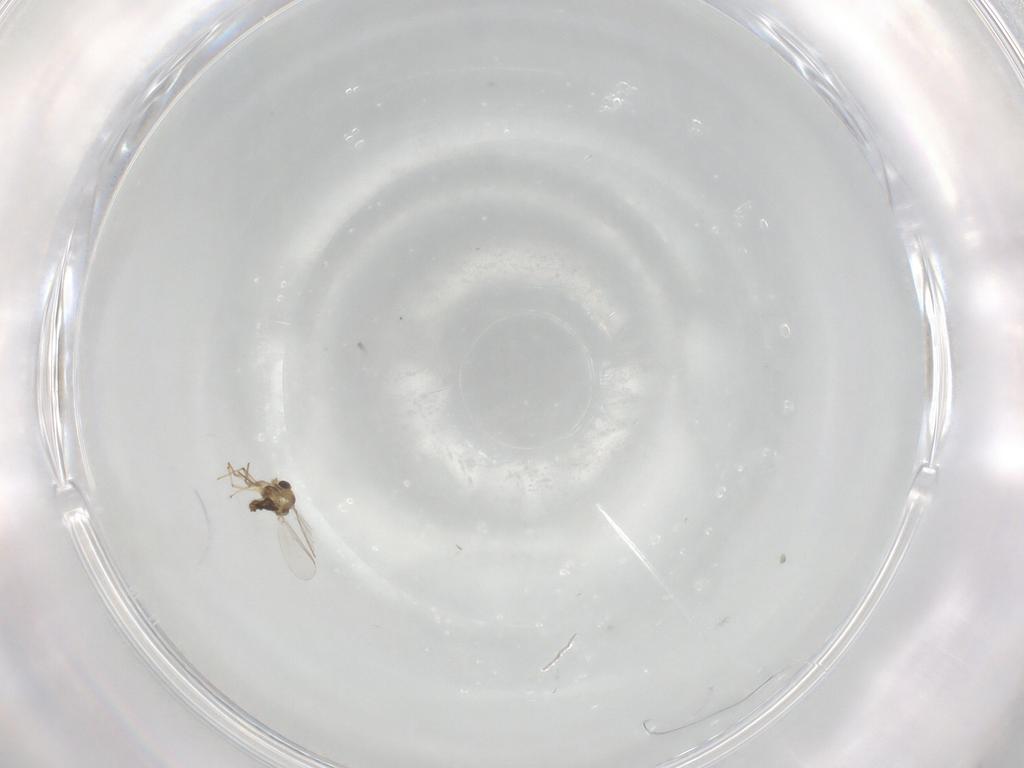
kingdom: Animalia
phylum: Arthropoda
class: Insecta
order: Diptera
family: Chironomidae
